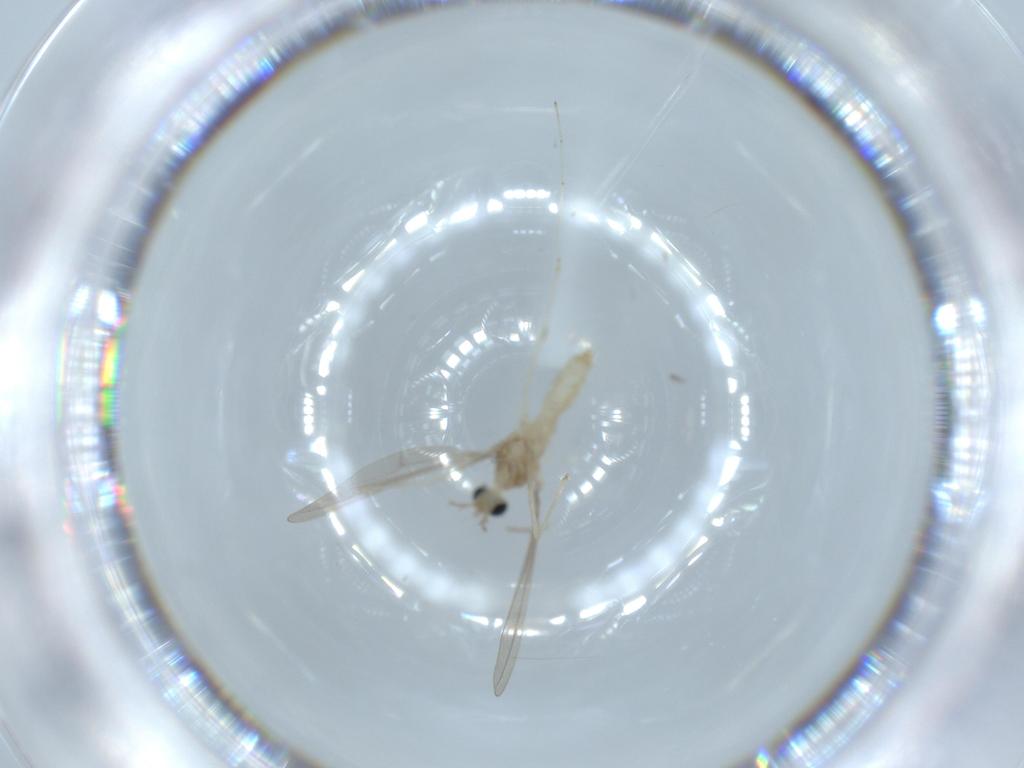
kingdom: Animalia
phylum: Arthropoda
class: Insecta
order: Diptera
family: Cecidomyiidae
